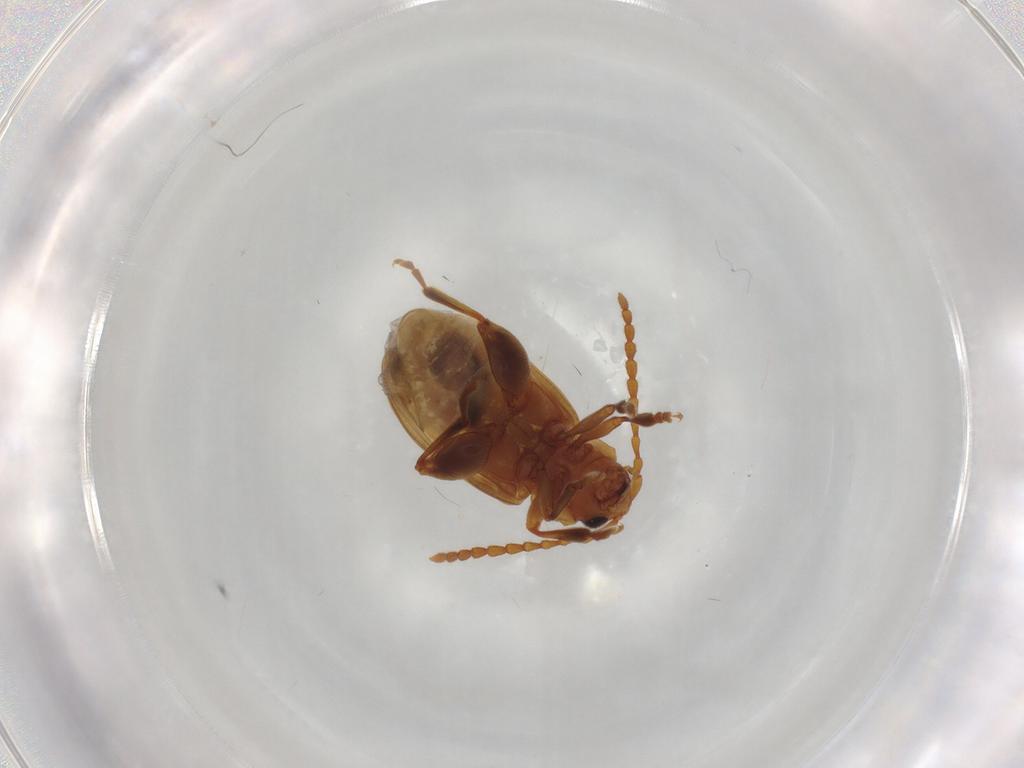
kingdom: Animalia
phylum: Arthropoda
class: Insecta
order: Coleoptera
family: Chrysomelidae
